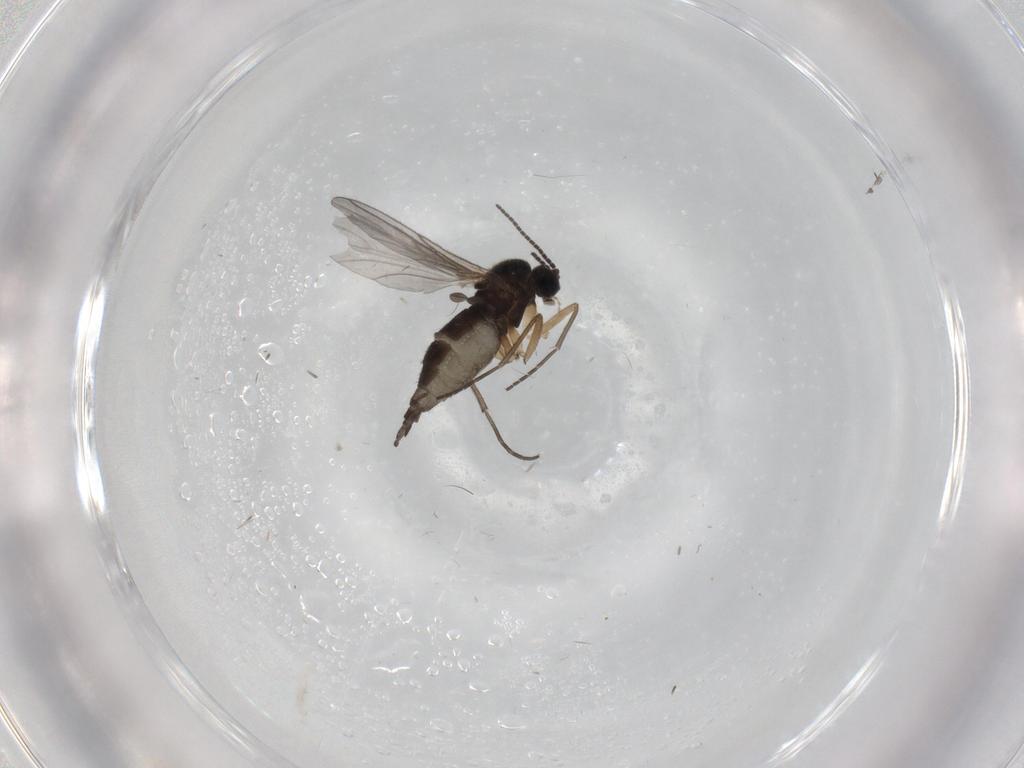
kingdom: Animalia
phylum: Arthropoda
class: Insecta
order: Diptera
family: Sciaridae
